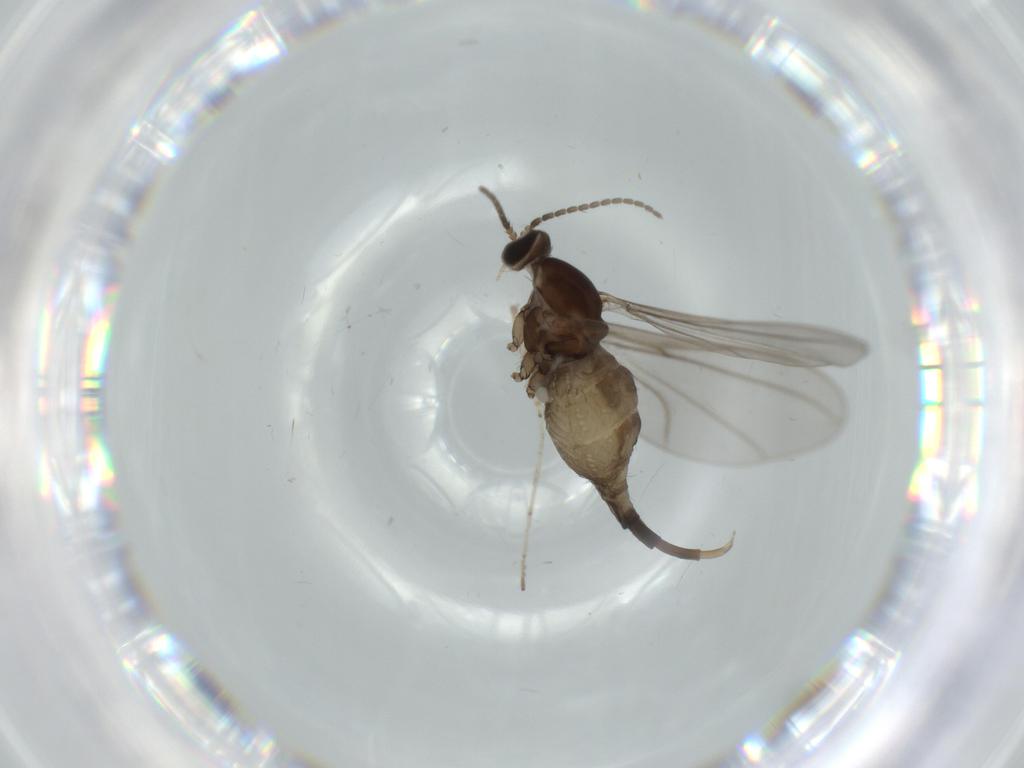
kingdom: Animalia
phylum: Arthropoda
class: Insecta
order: Diptera
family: Cecidomyiidae
